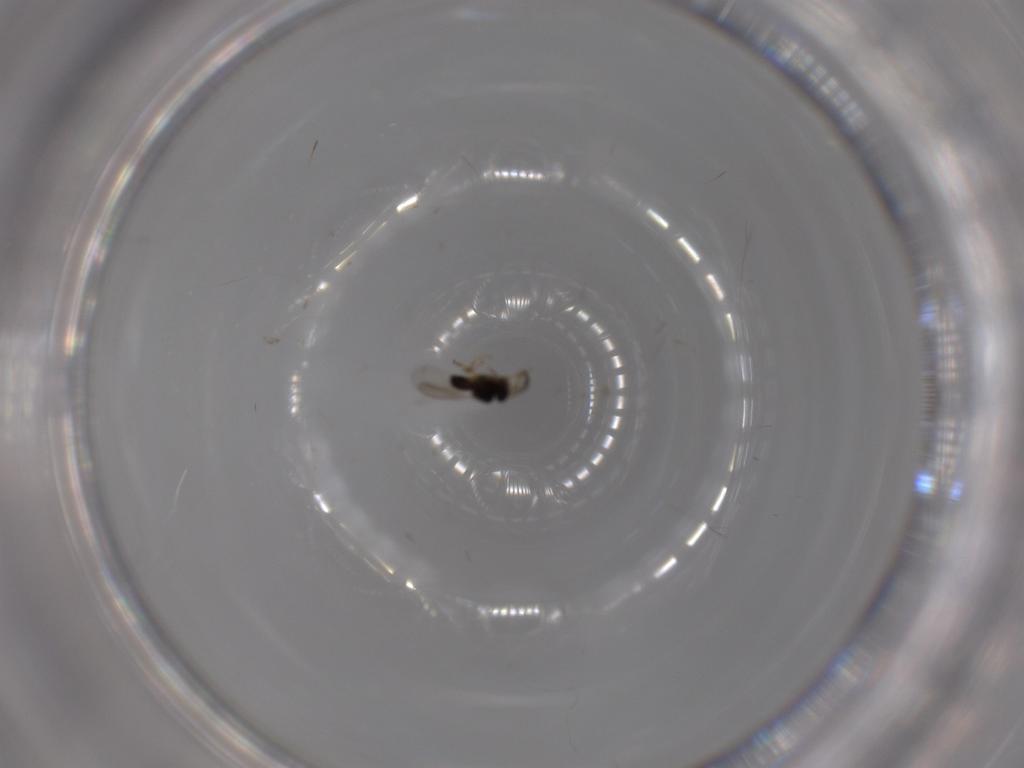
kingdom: Animalia
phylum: Arthropoda
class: Insecta
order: Hymenoptera
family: Scelionidae
